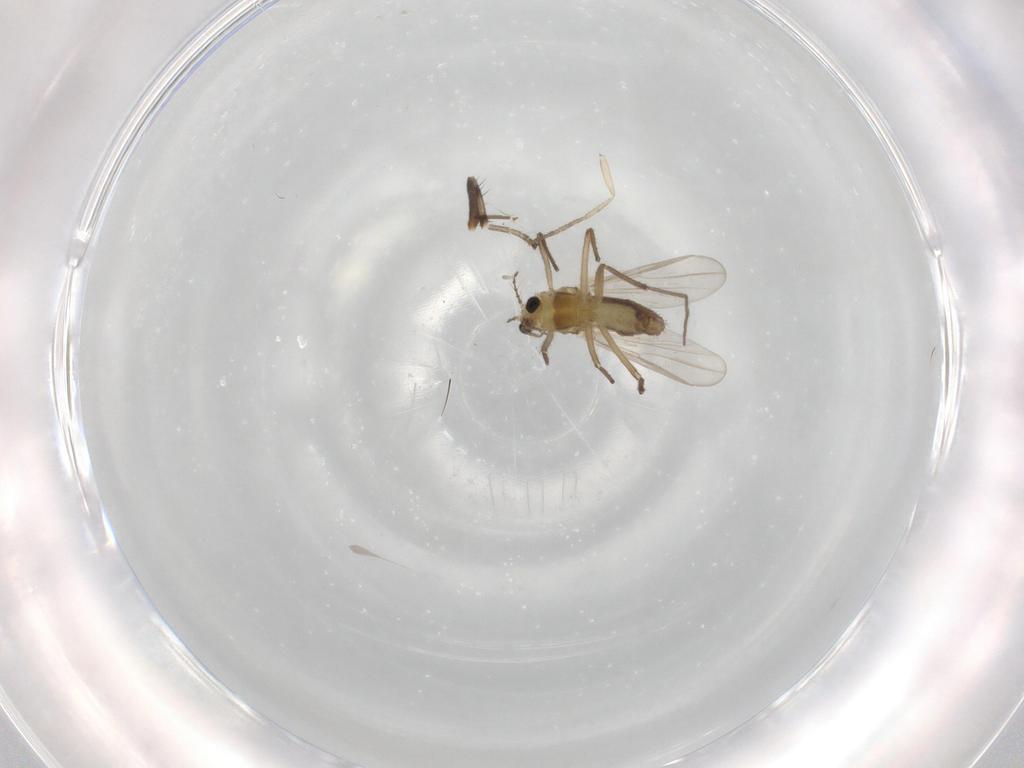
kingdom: Animalia
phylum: Arthropoda
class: Insecta
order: Diptera
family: Chironomidae
